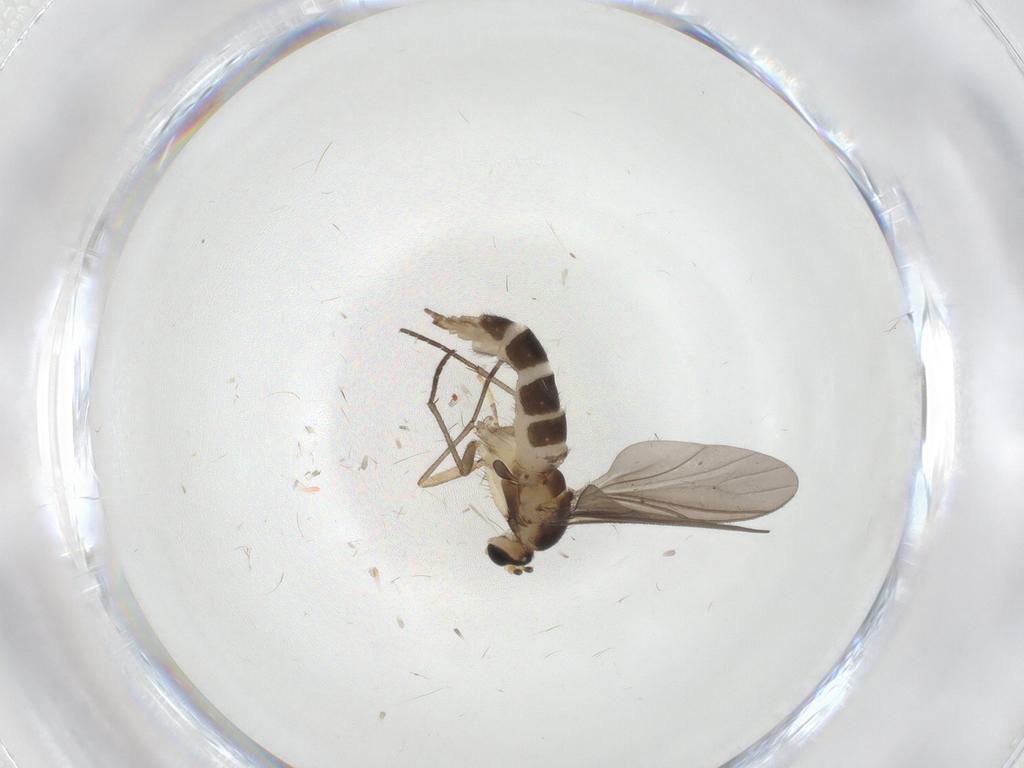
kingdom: Animalia
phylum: Arthropoda
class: Insecta
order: Diptera
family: Sciaridae
